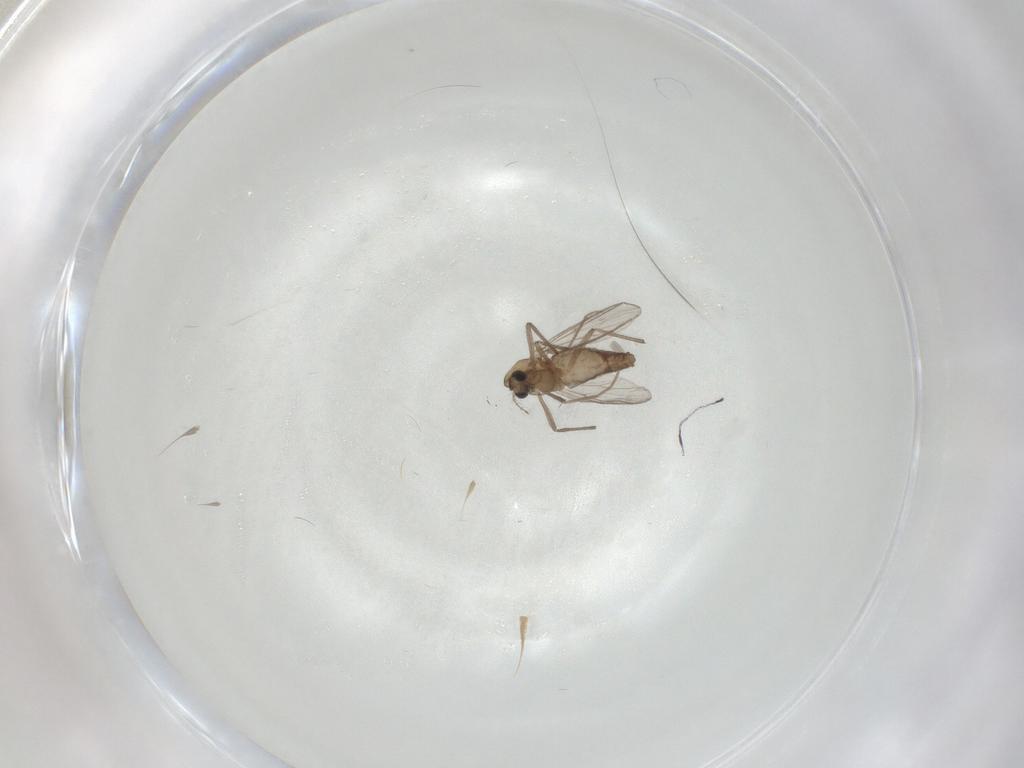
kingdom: Animalia
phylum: Arthropoda
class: Insecta
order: Diptera
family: Chironomidae
